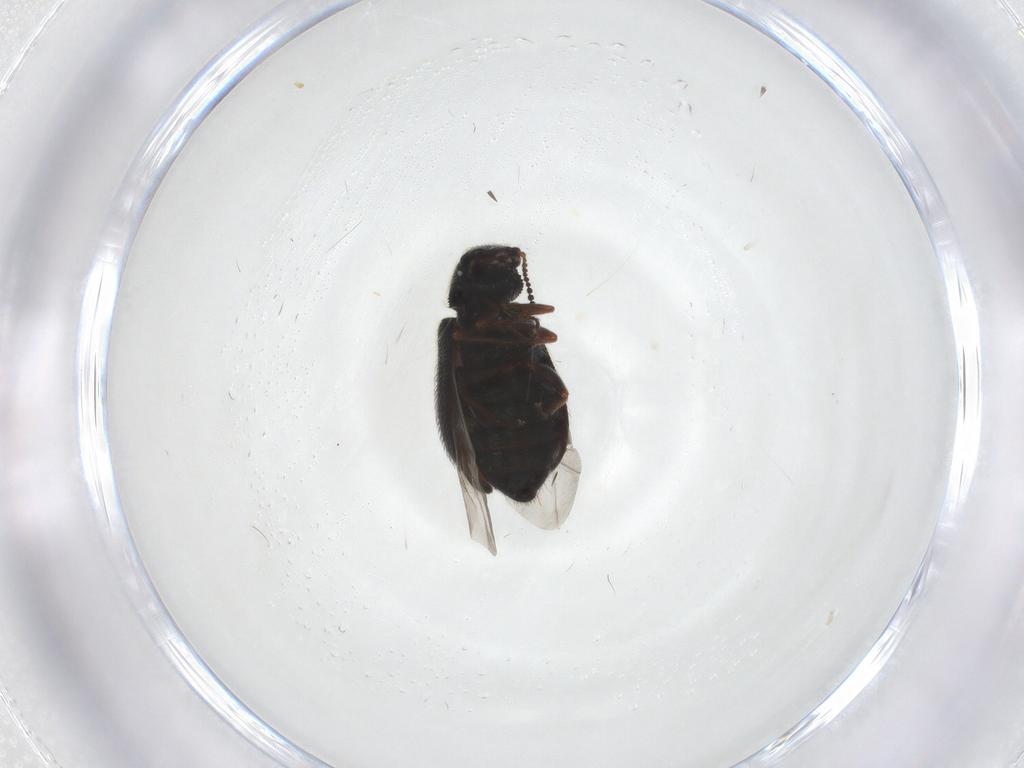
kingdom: Animalia
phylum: Arthropoda
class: Insecta
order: Coleoptera
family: Melyridae
